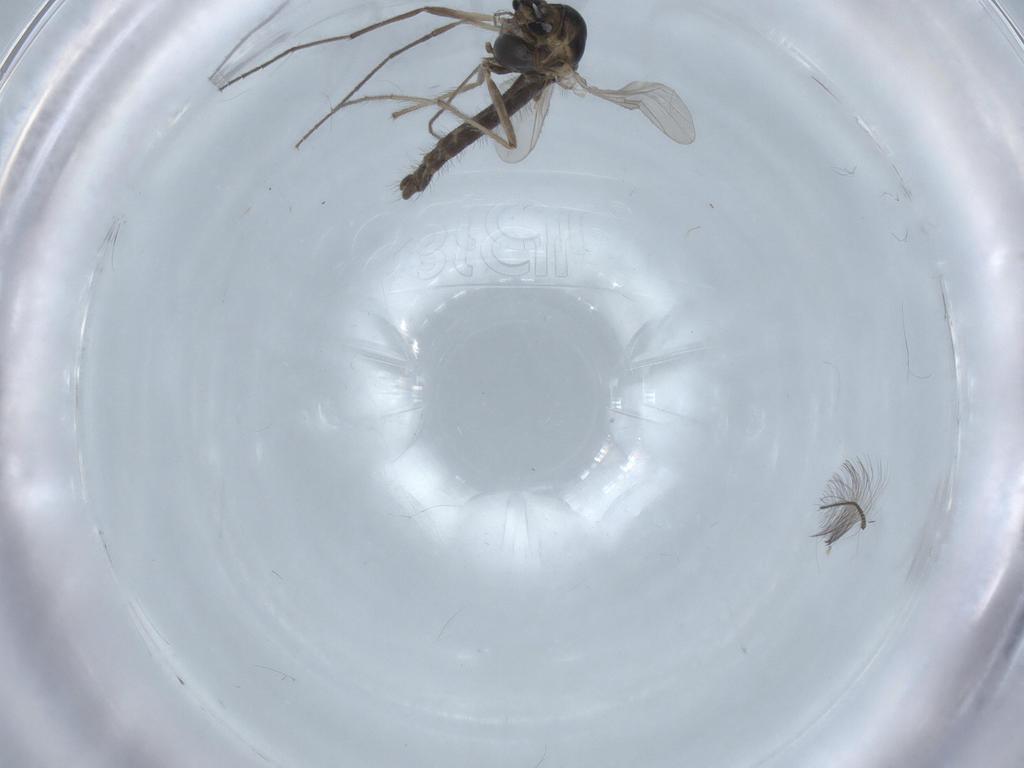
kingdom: Animalia
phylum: Arthropoda
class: Insecta
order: Diptera
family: Chironomidae
